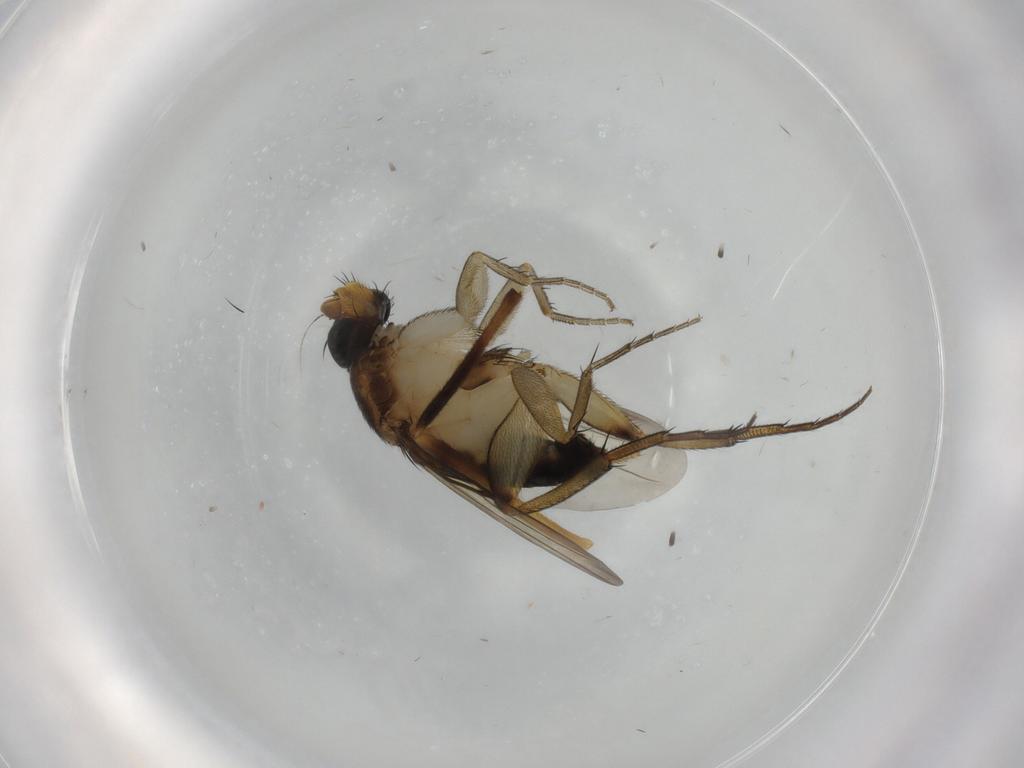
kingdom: Animalia
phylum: Arthropoda
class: Insecta
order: Diptera
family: Phoridae
